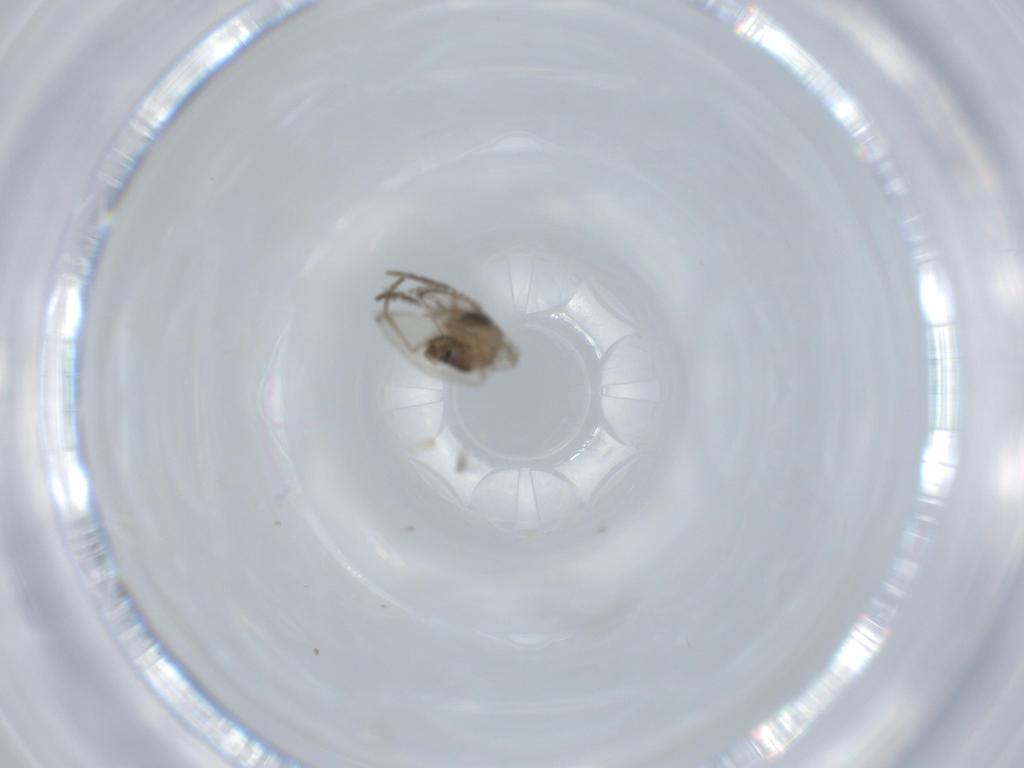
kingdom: Animalia
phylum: Arthropoda
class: Insecta
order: Diptera
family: Psychodidae
